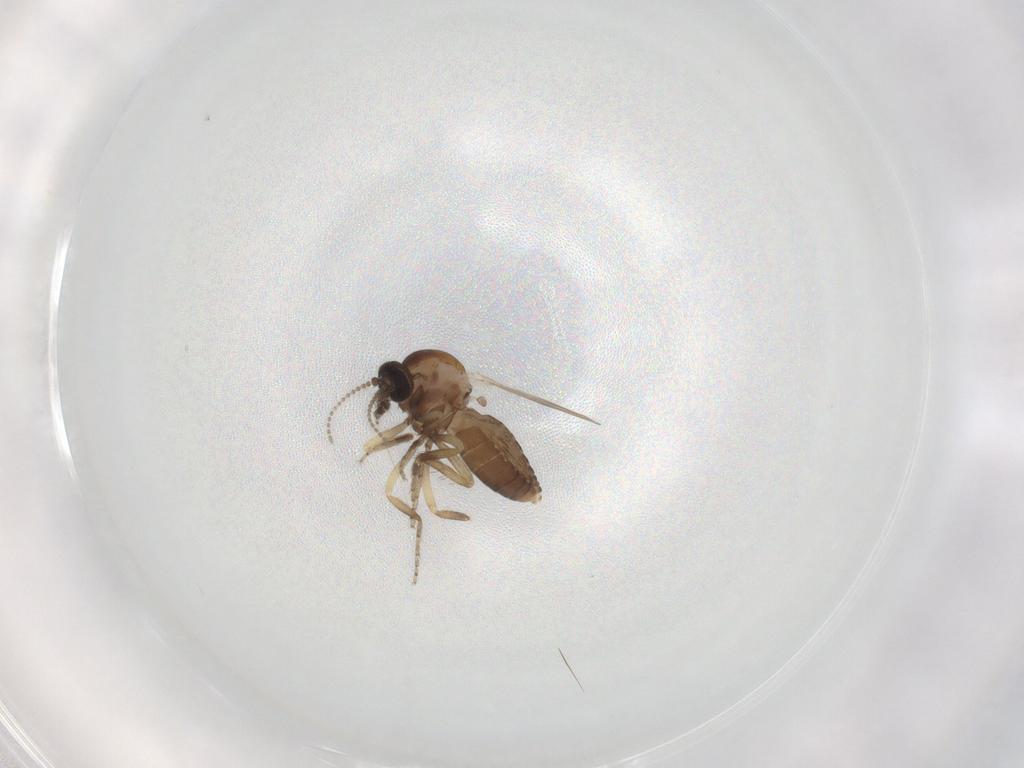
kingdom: Animalia
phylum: Arthropoda
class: Insecta
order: Diptera
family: Ceratopogonidae
